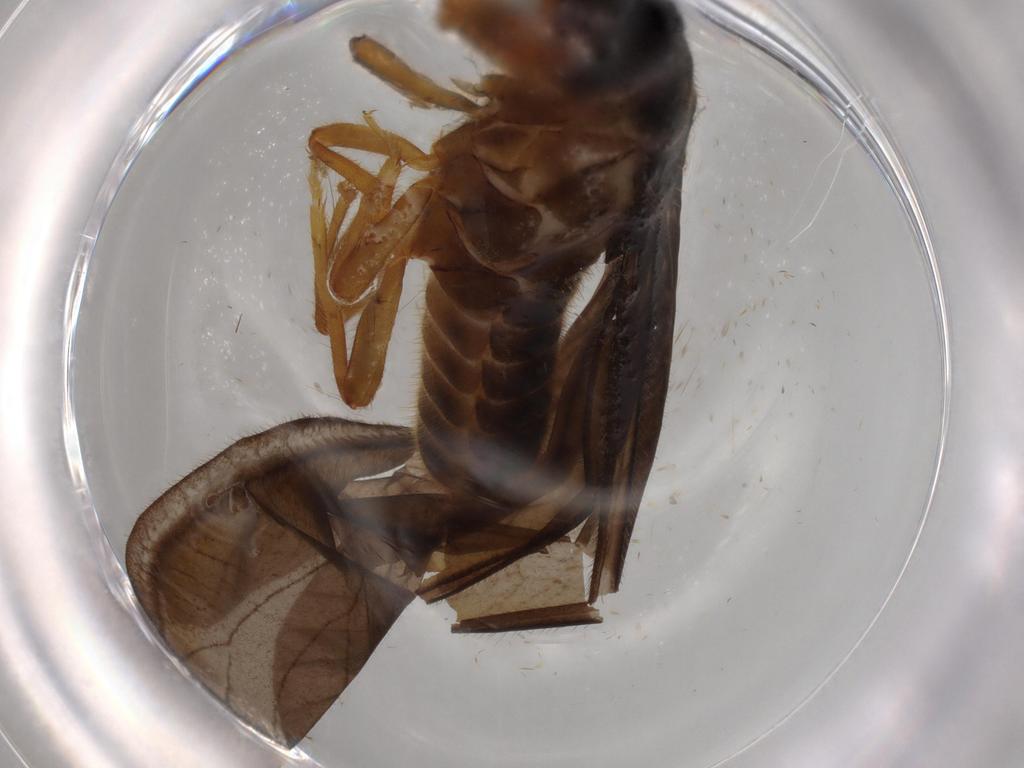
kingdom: Animalia
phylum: Arthropoda
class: Insecta
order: Blattodea
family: Termitidae
